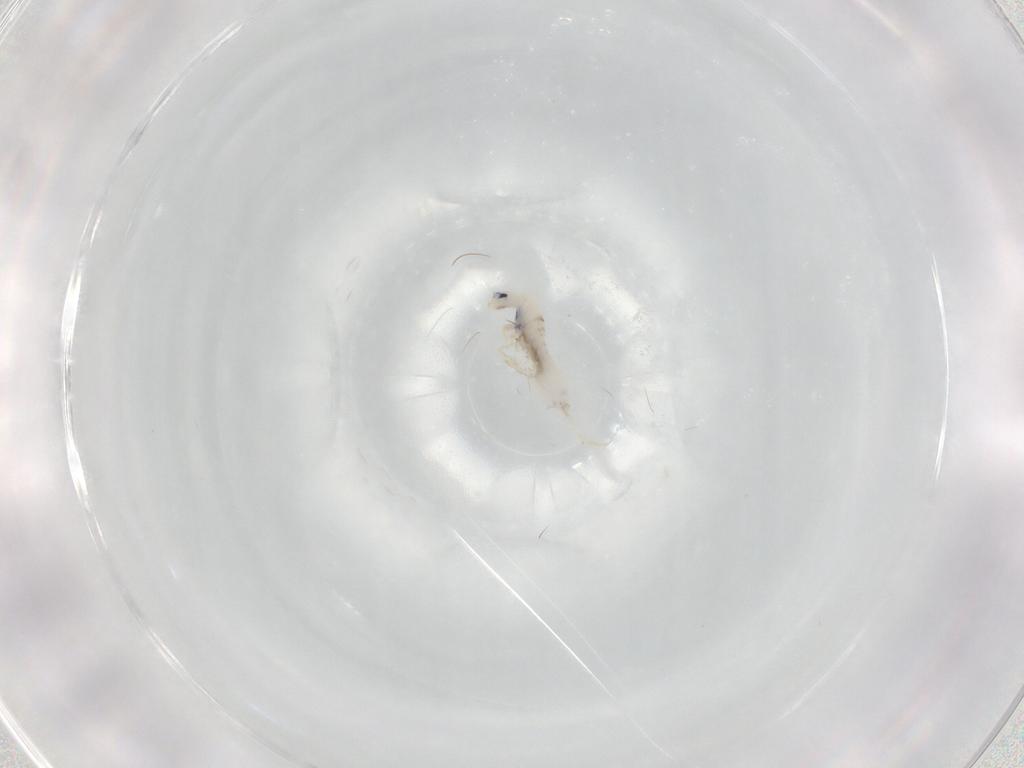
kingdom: Animalia
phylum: Arthropoda
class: Collembola
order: Entomobryomorpha
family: Entomobryidae
